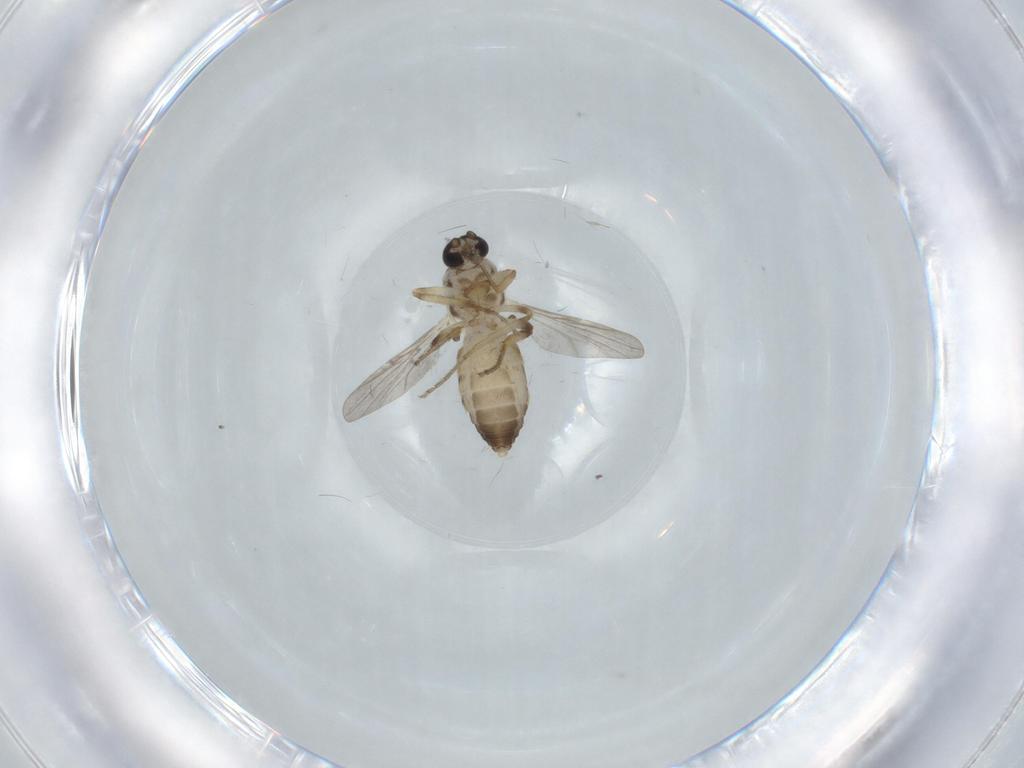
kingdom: Animalia
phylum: Arthropoda
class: Insecta
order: Diptera
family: Ceratopogonidae
